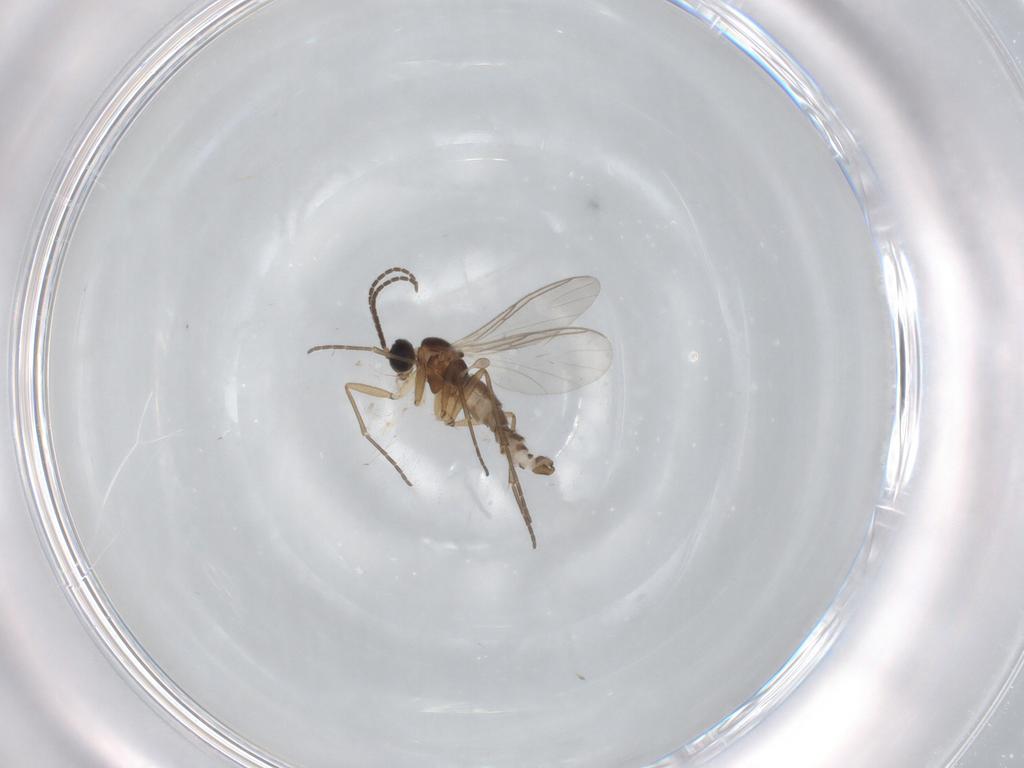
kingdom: Animalia
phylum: Arthropoda
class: Insecta
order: Diptera
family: Sciaridae
